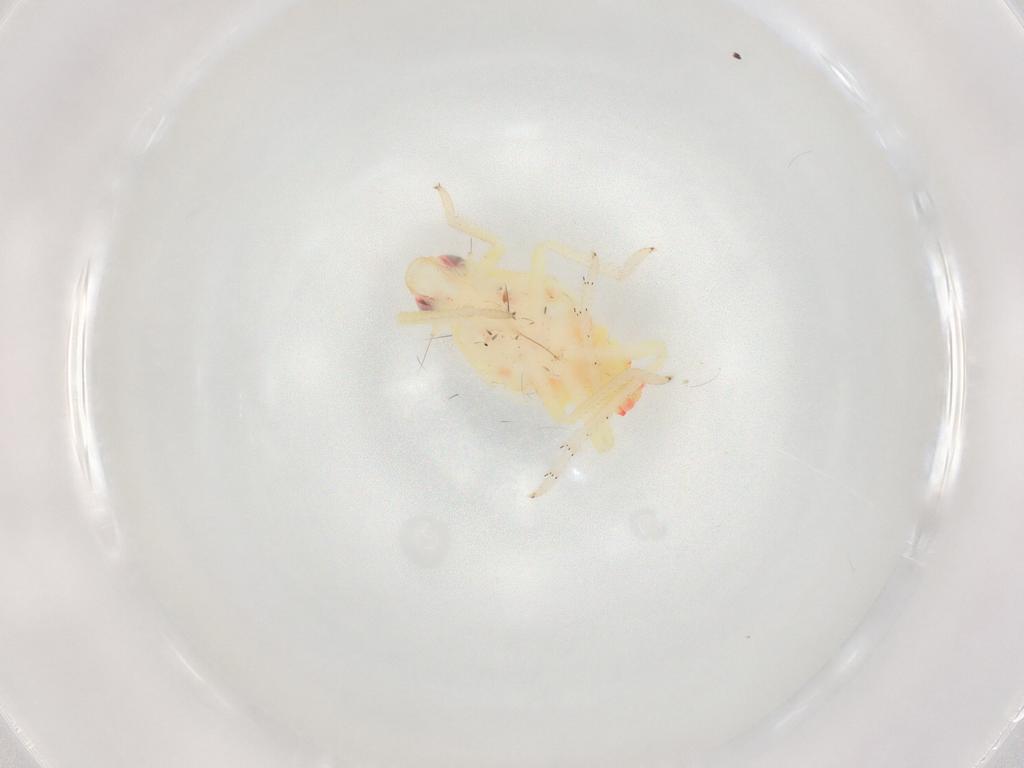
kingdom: Animalia
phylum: Arthropoda
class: Insecta
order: Hemiptera
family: Tropiduchidae
